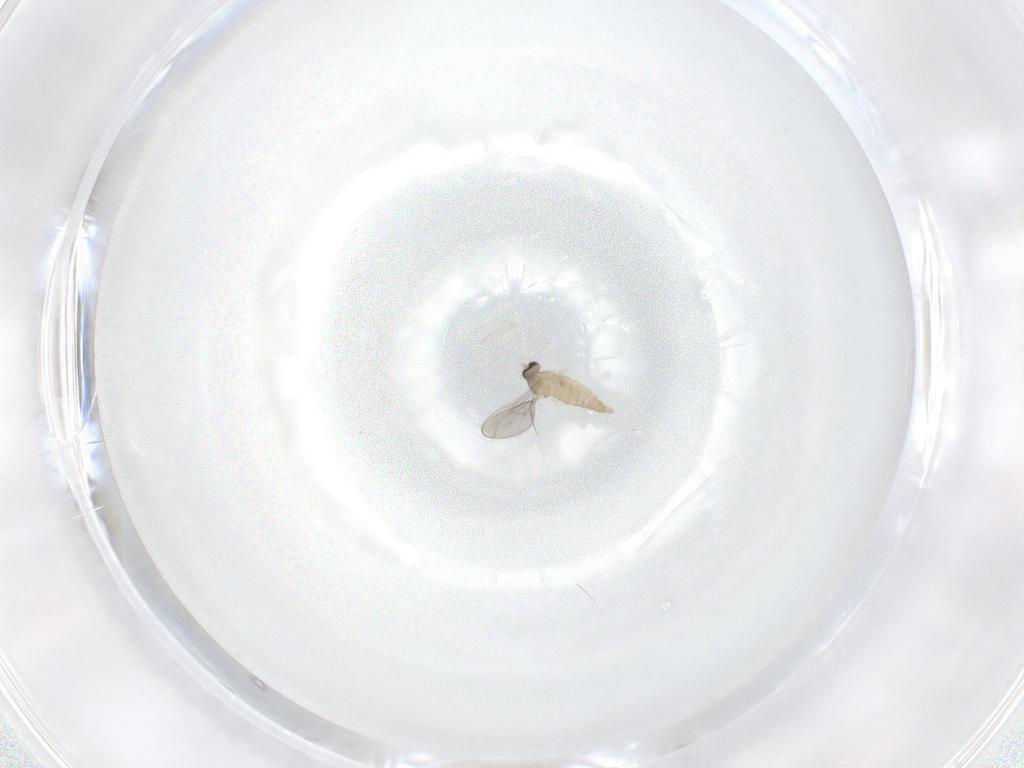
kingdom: Animalia
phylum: Arthropoda
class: Insecta
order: Diptera
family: Cecidomyiidae
